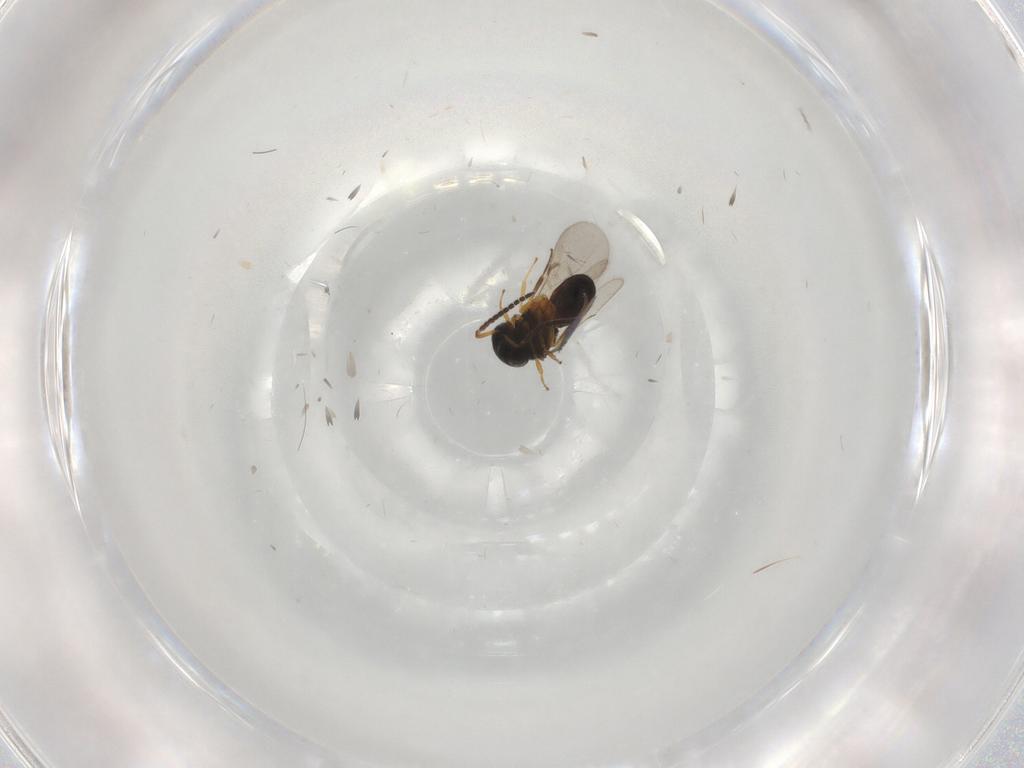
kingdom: Animalia
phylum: Arthropoda
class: Insecta
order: Hymenoptera
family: Scelionidae
